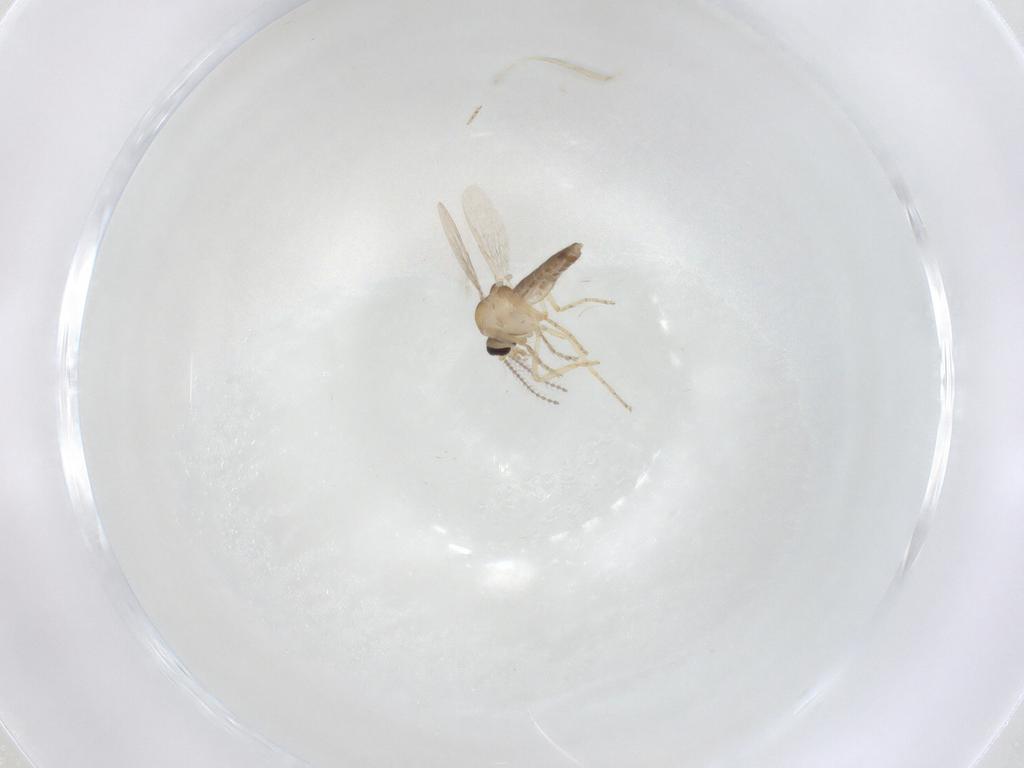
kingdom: Animalia
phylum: Arthropoda
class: Insecta
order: Diptera
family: Ceratopogonidae
